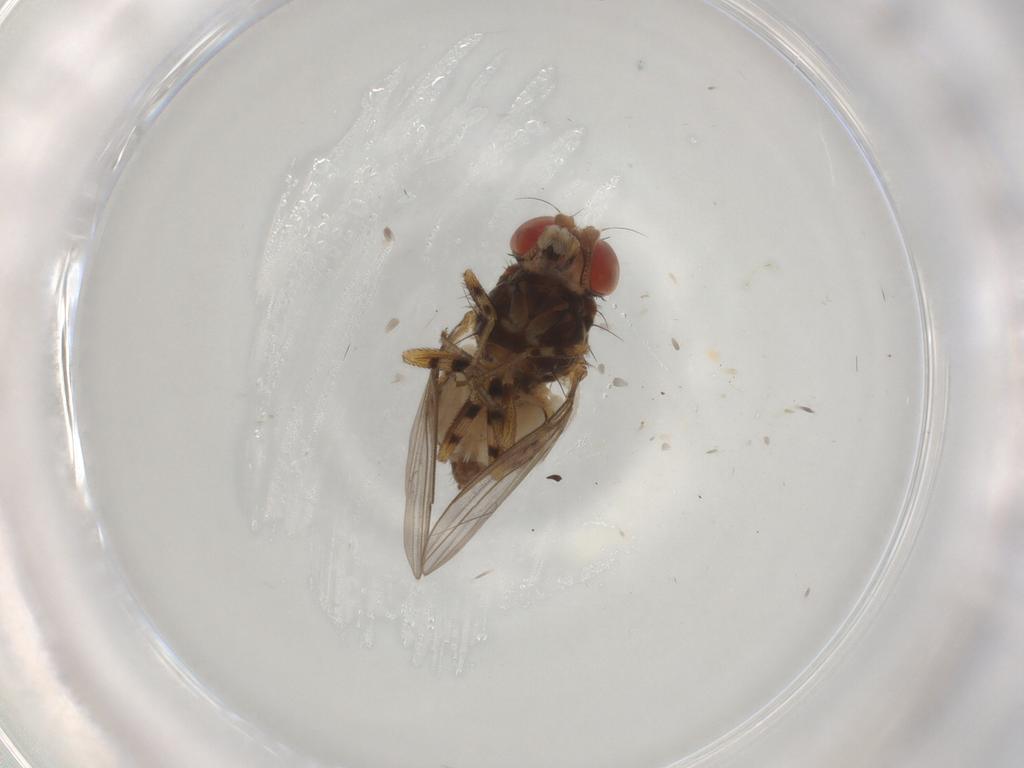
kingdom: Animalia
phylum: Arthropoda
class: Insecta
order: Diptera
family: Drosophilidae
